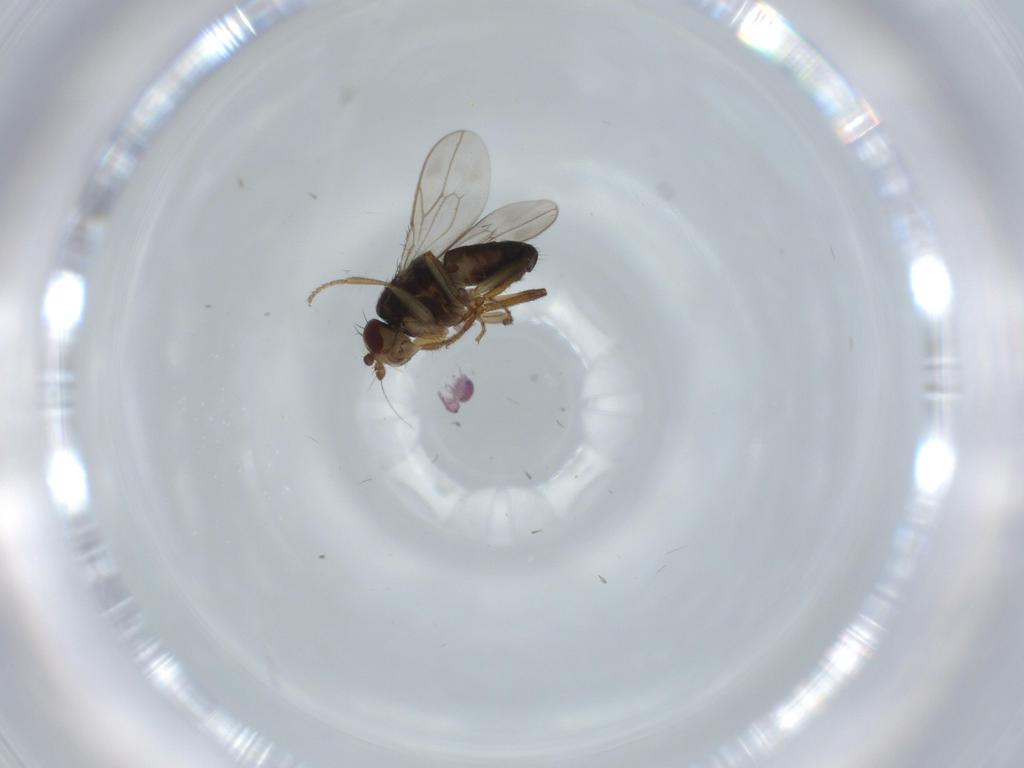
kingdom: Animalia
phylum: Arthropoda
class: Collembola
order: Symphypleona
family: Sminthurididae
